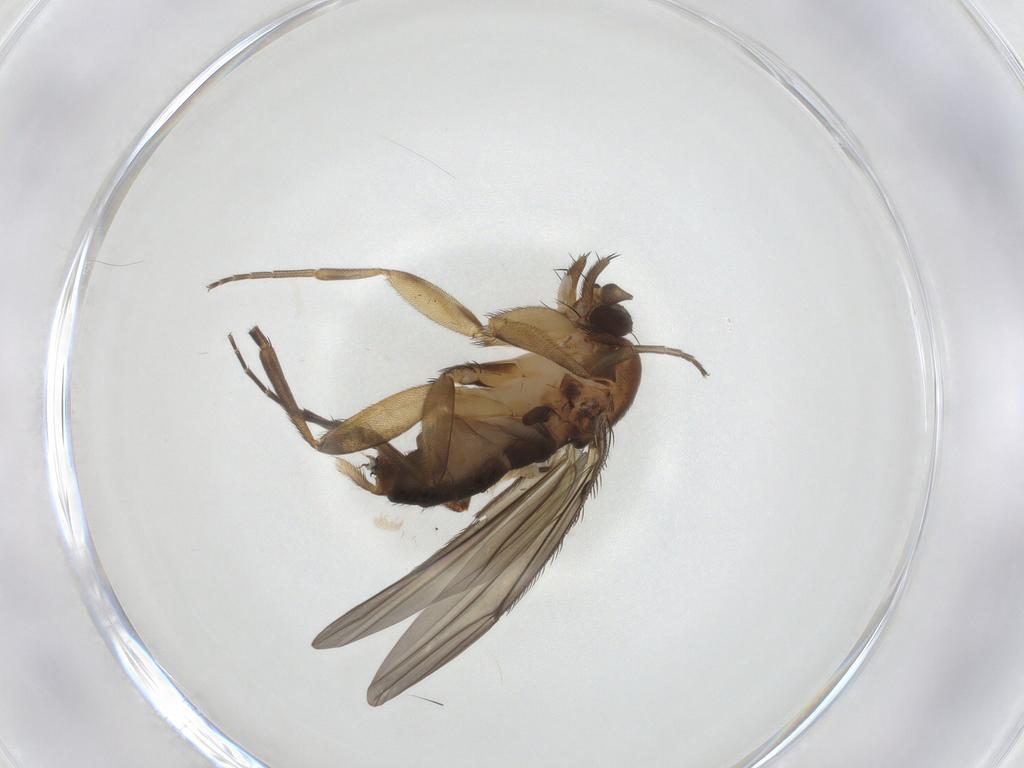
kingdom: Animalia
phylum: Arthropoda
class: Insecta
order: Diptera
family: Phoridae
